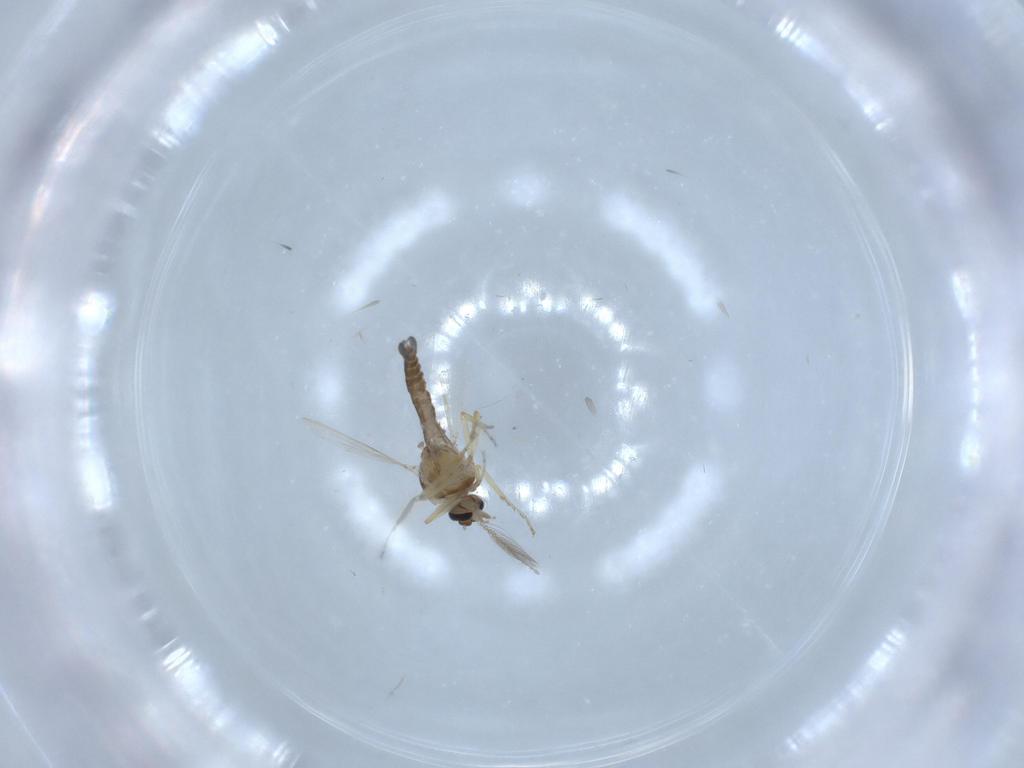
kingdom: Animalia
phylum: Arthropoda
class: Insecta
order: Diptera
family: Ceratopogonidae
